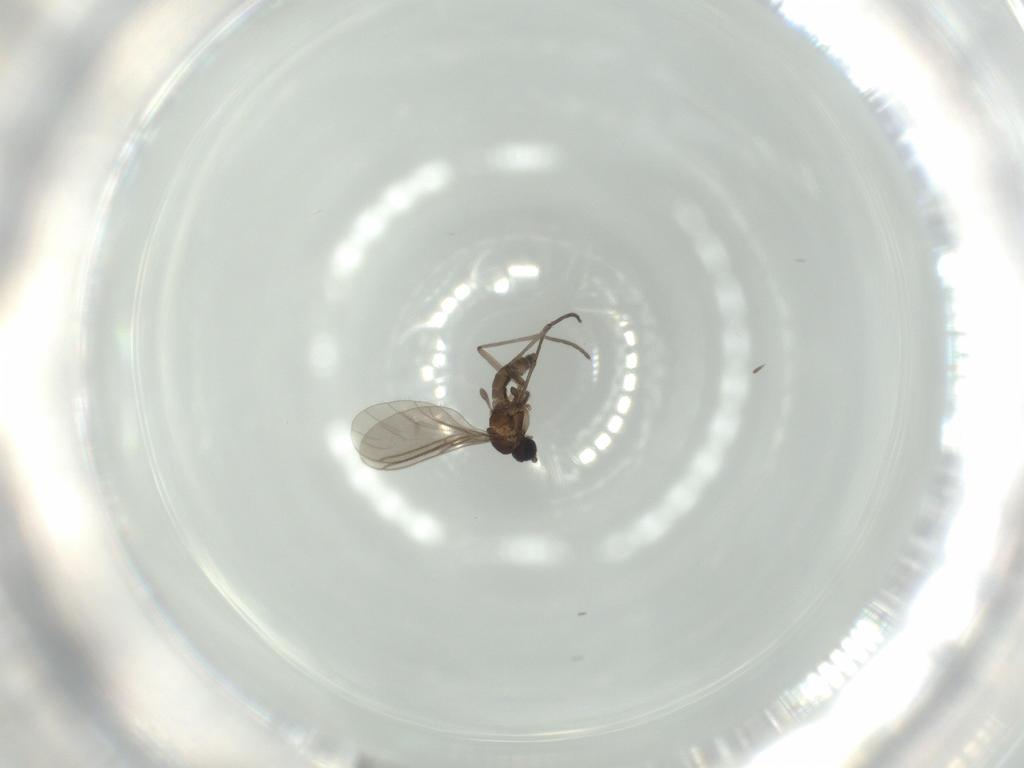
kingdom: Animalia
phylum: Arthropoda
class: Insecta
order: Diptera
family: Sciaridae
